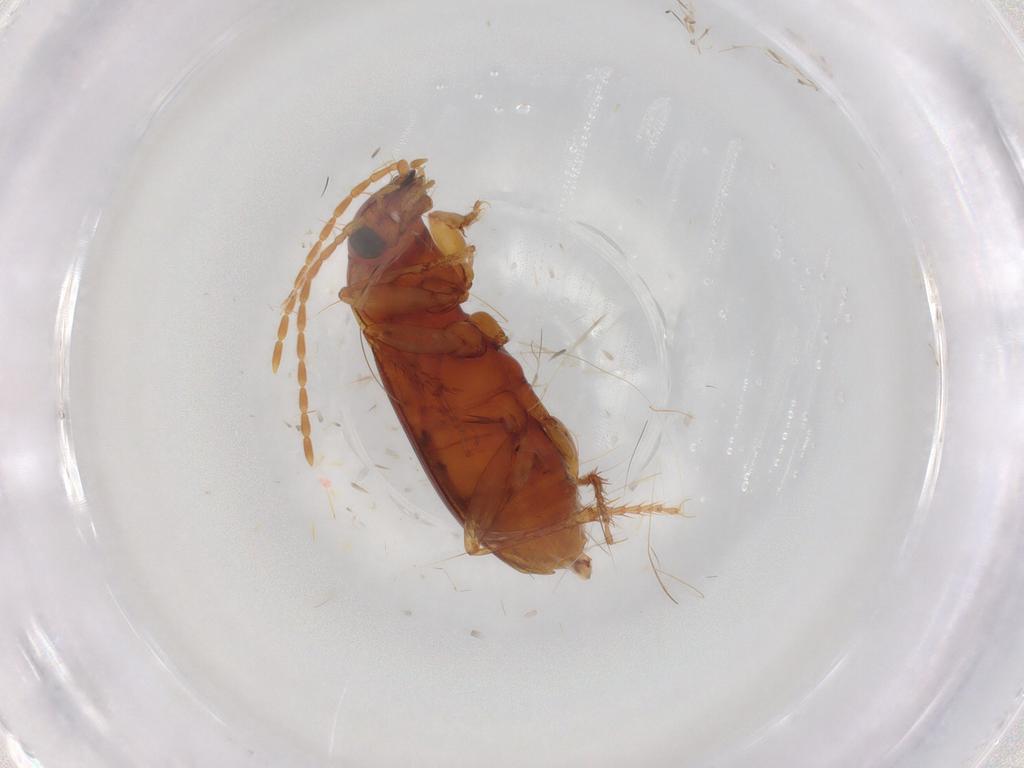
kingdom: Animalia
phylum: Arthropoda
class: Insecta
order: Coleoptera
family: Carabidae
